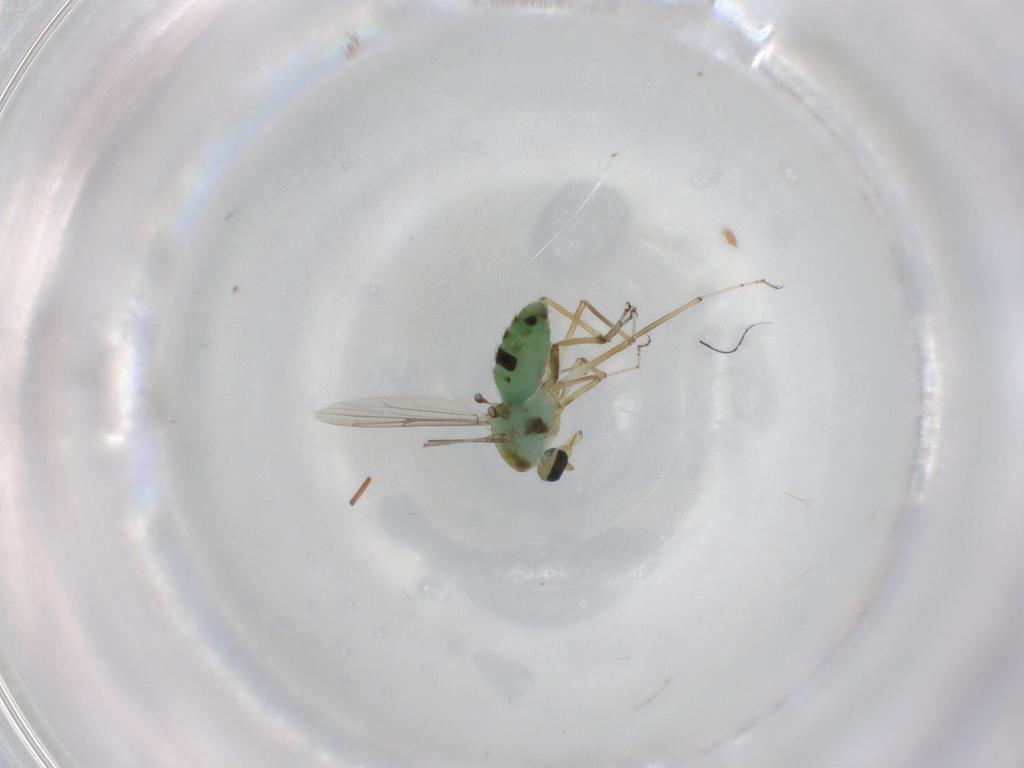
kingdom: Animalia
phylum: Arthropoda
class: Insecta
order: Diptera
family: Ceratopogonidae
